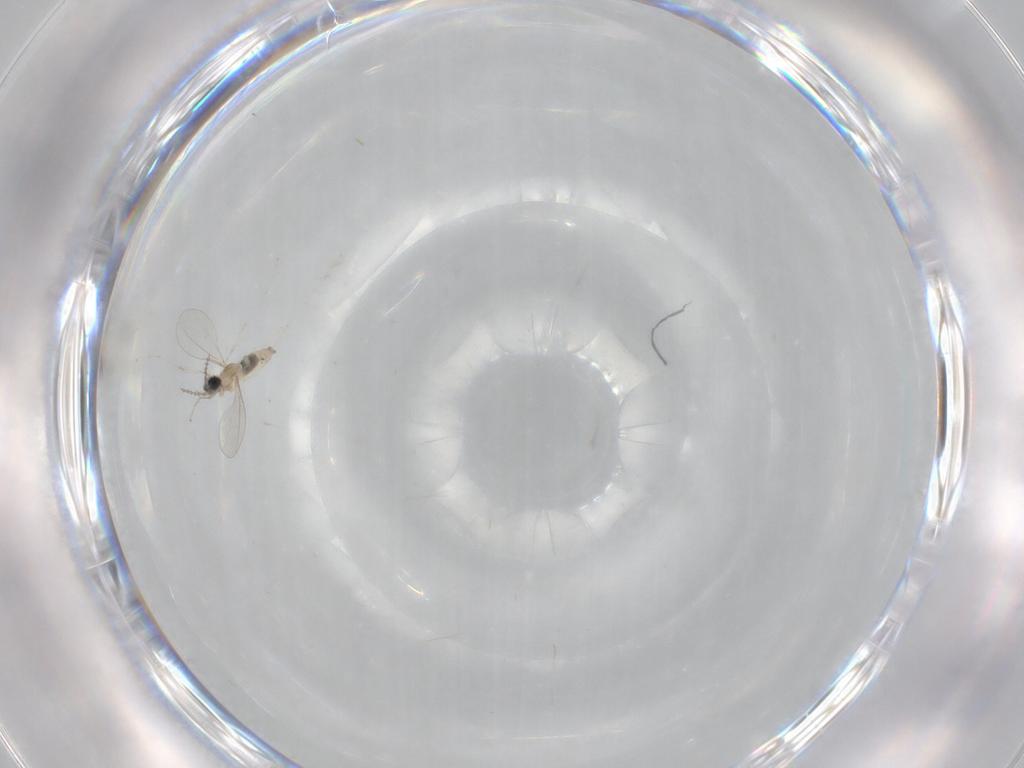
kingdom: Animalia
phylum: Arthropoda
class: Insecta
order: Diptera
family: Cecidomyiidae
